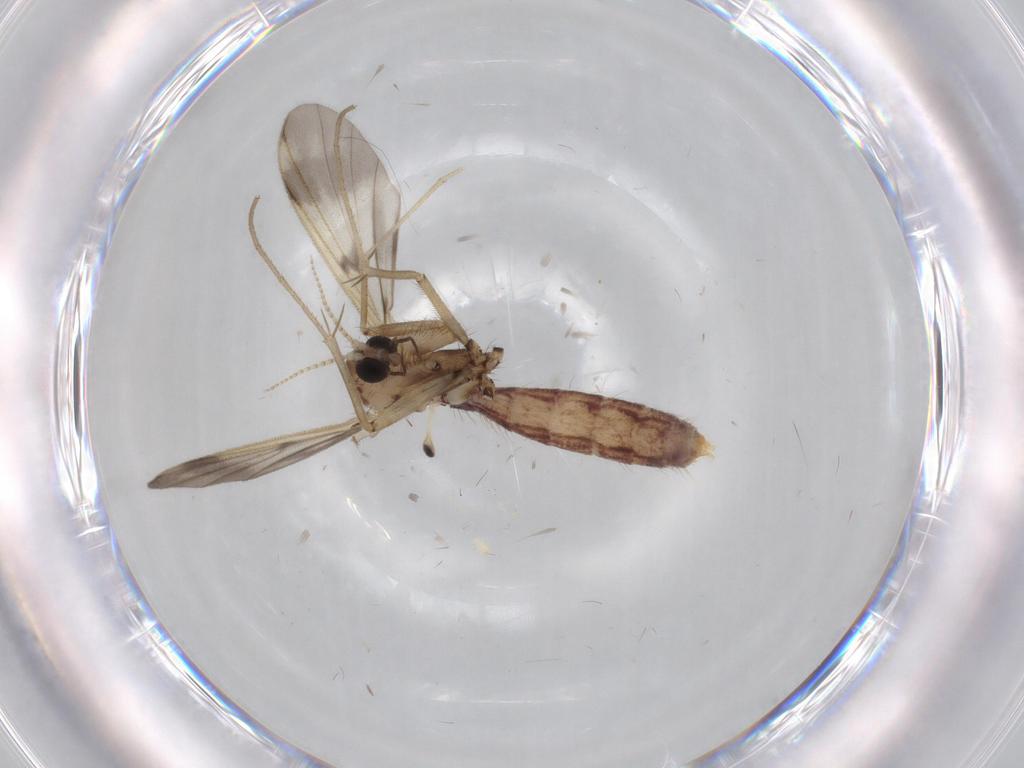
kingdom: Animalia
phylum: Arthropoda
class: Insecta
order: Diptera
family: Mycetophilidae
